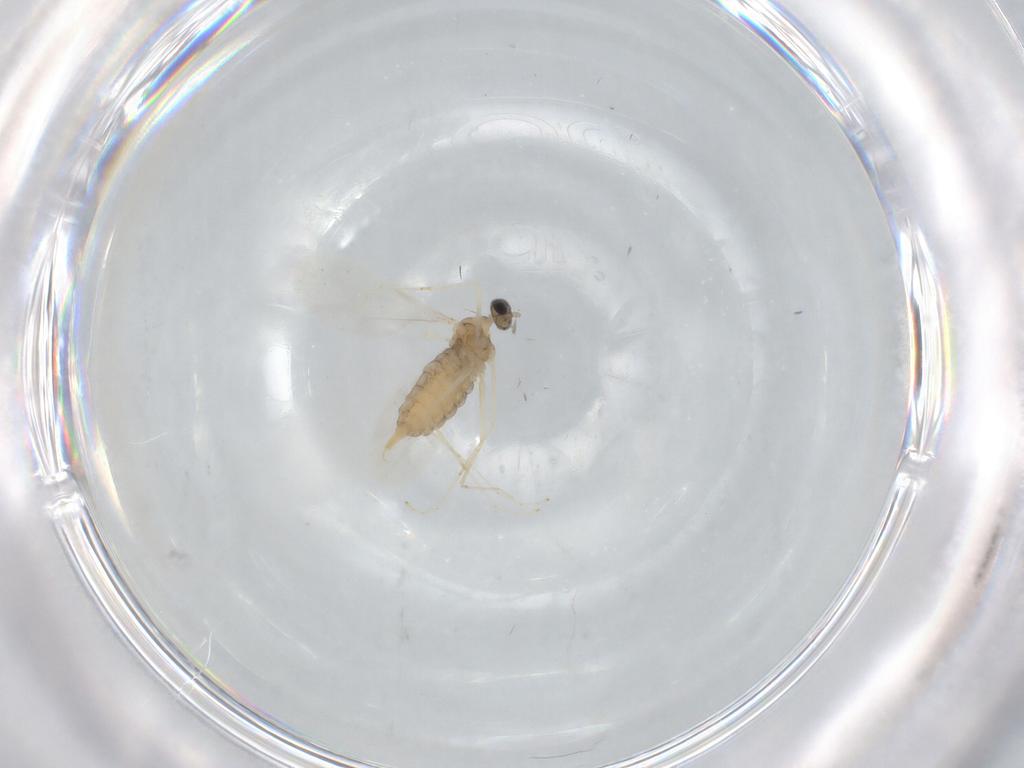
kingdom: Animalia
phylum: Arthropoda
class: Insecta
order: Diptera
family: Cecidomyiidae
